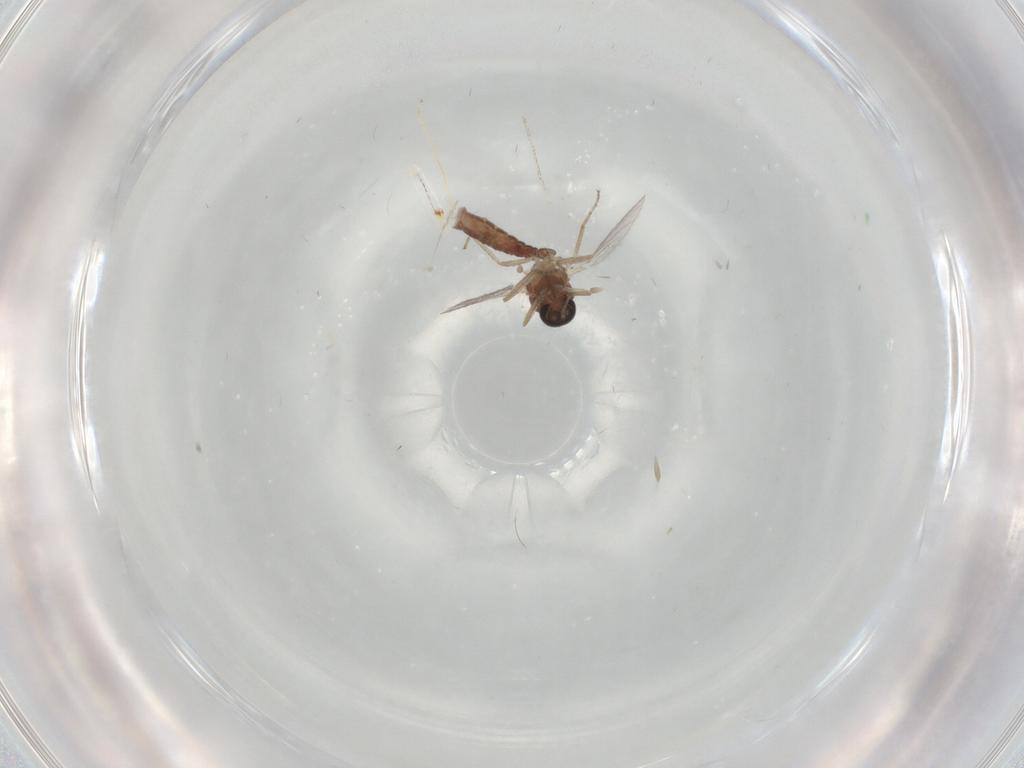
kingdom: Animalia
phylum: Arthropoda
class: Insecta
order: Diptera
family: Ceratopogonidae
